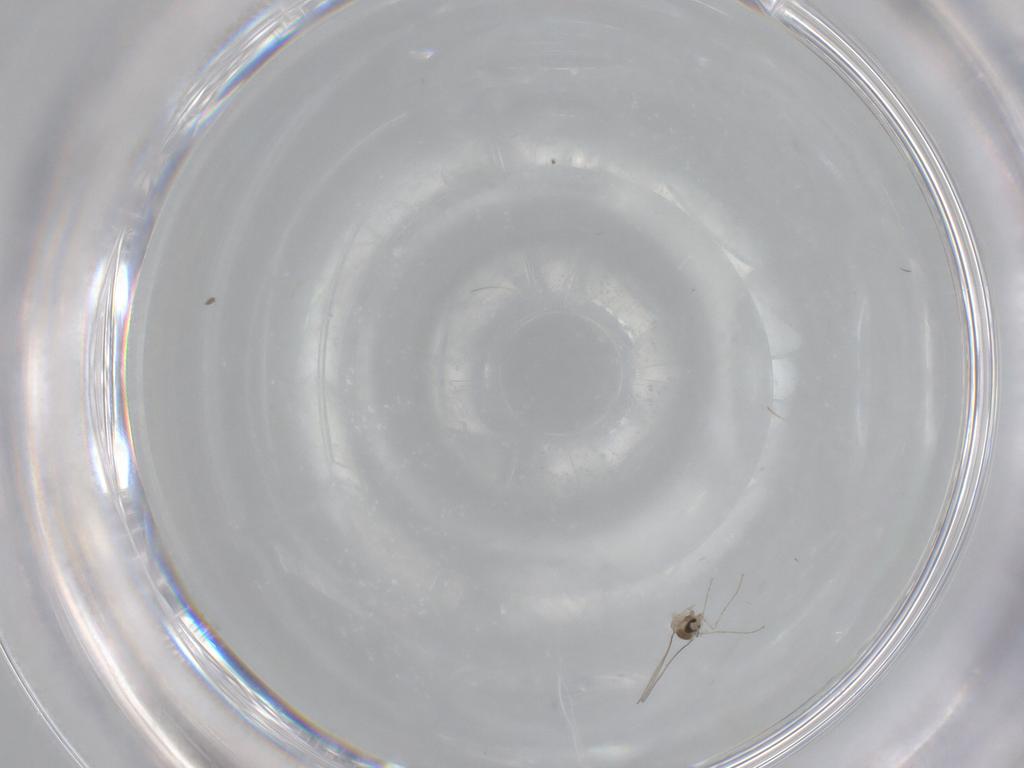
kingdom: Animalia
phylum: Arthropoda
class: Insecta
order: Diptera
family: Cecidomyiidae
